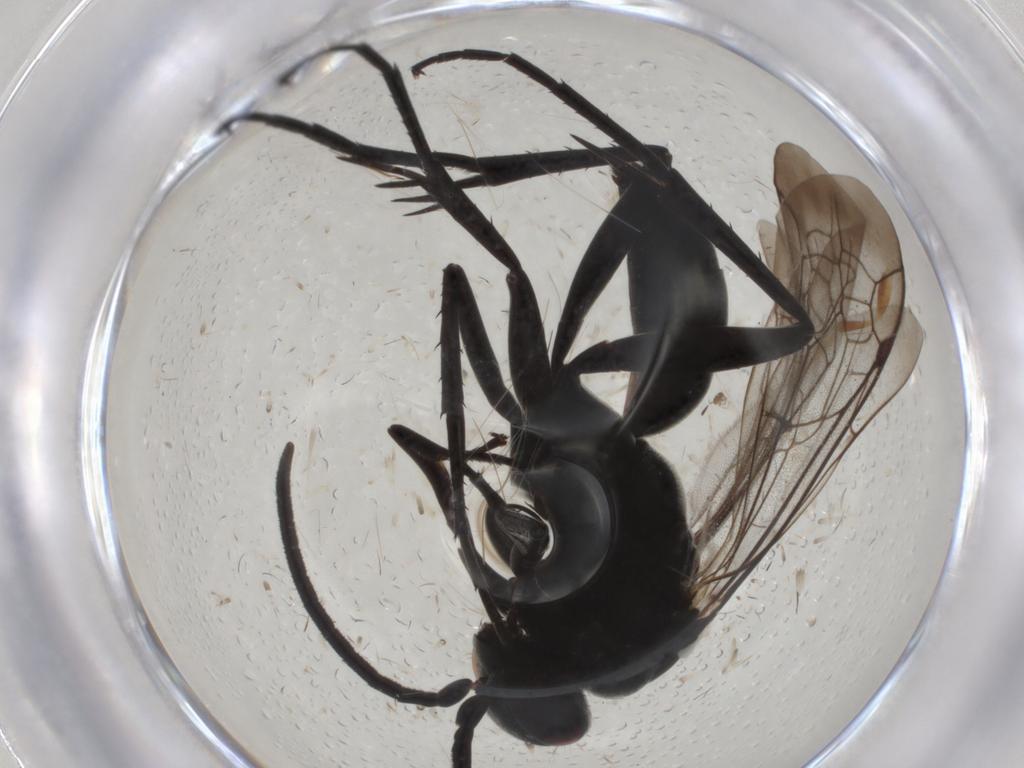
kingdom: Animalia
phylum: Arthropoda
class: Insecta
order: Hymenoptera
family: Pompilidae
